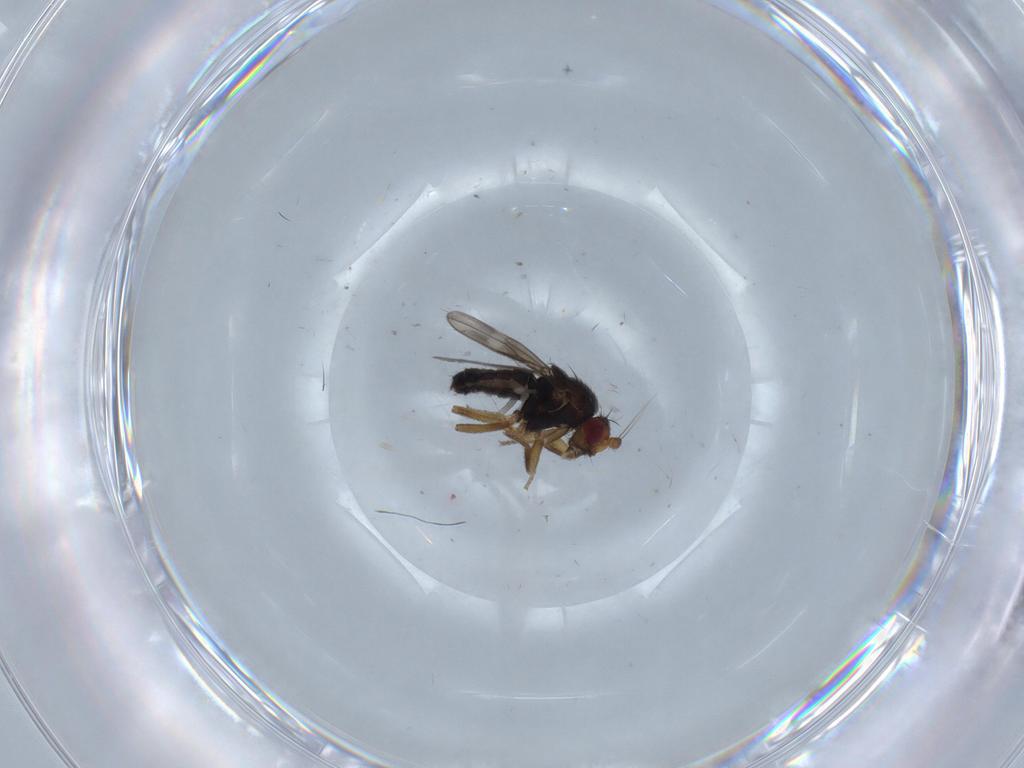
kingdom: Animalia
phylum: Arthropoda
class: Insecta
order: Diptera
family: Sphaeroceridae
